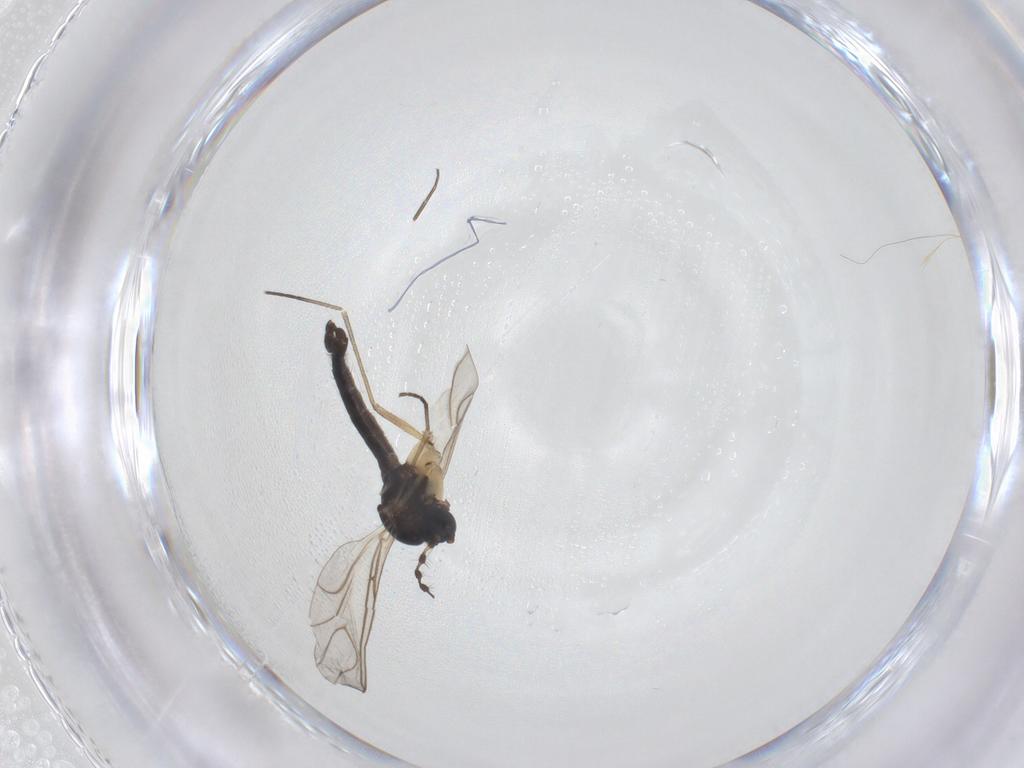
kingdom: Animalia
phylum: Arthropoda
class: Insecta
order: Diptera
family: Sciaridae
